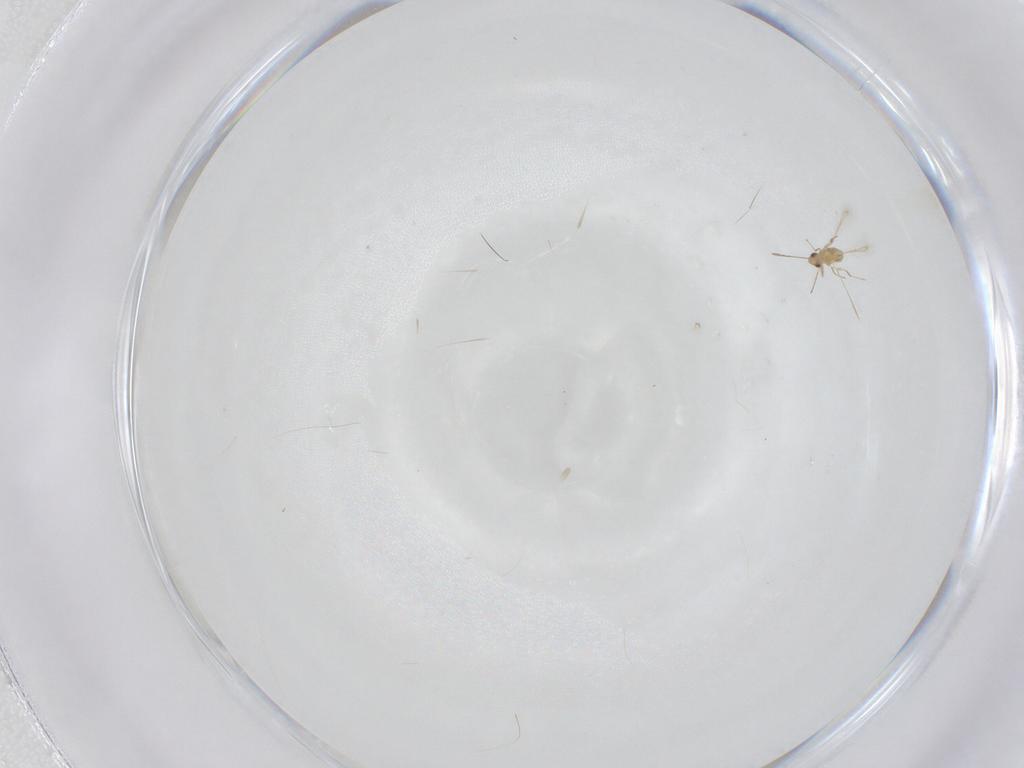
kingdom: Animalia
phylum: Arthropoda
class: Insecta
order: Hymenoptera
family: Mymaridae
